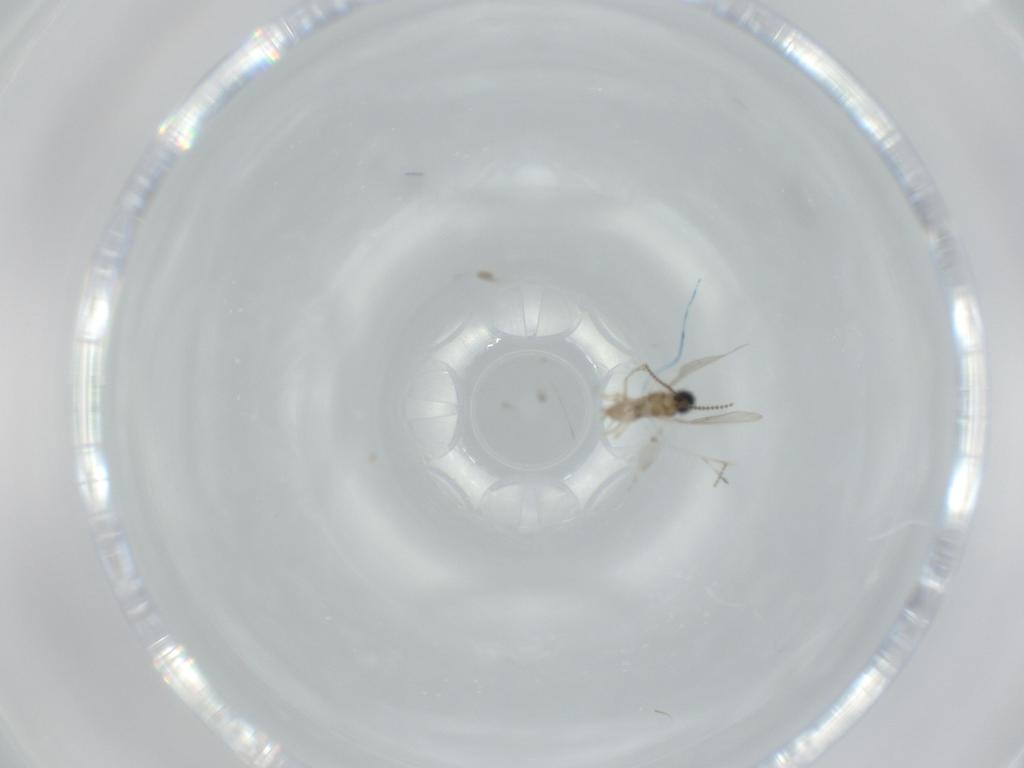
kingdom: Animalia
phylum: Arthropoda
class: Insecta
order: Diptera
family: Cecidomyiidae
